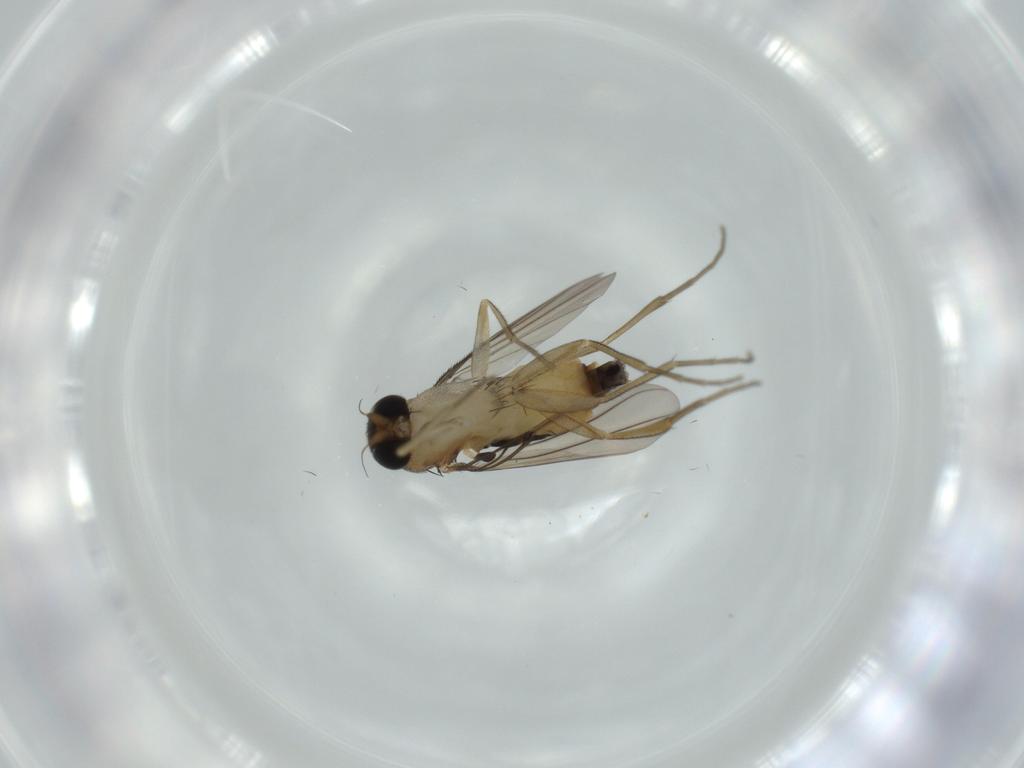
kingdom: Animalia
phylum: Arthropoda
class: Insecta
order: Diptera
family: Phoridae
